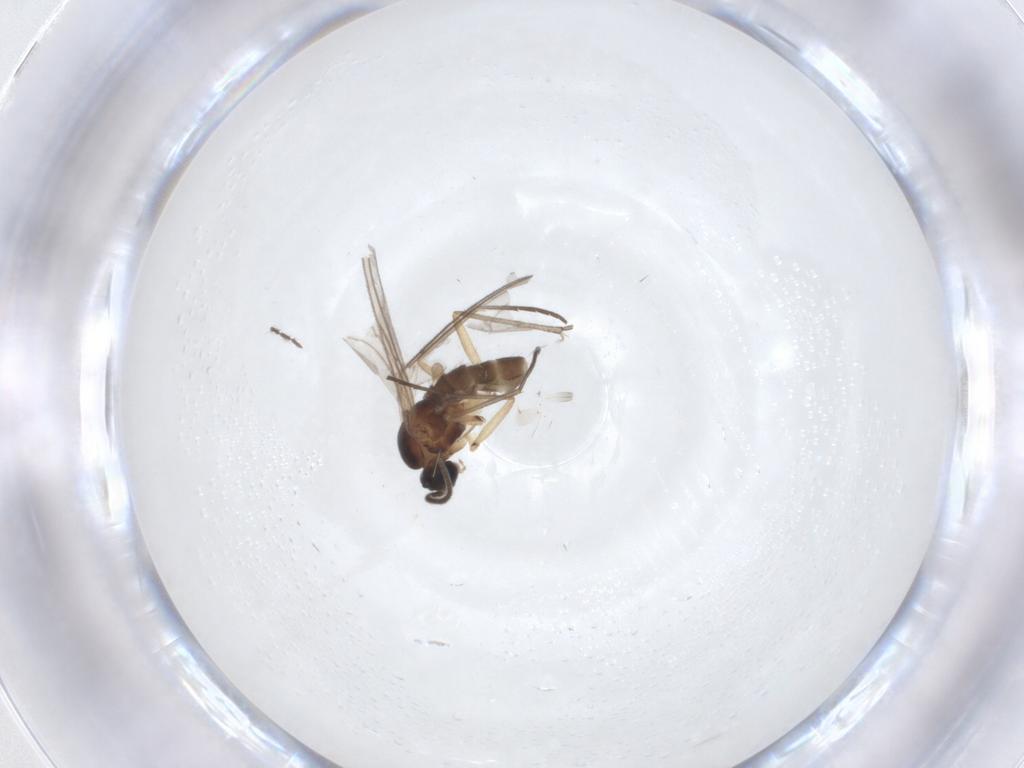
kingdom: Animalia
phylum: Arthropoda
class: Insecta
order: Diptera
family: Sciaridae
